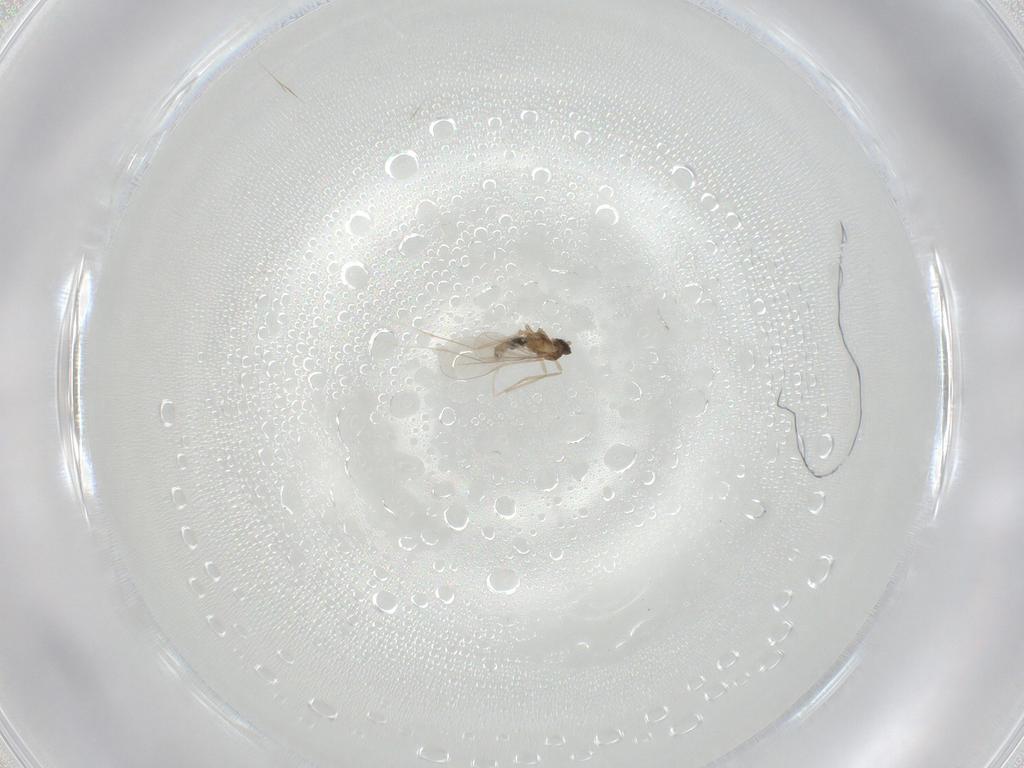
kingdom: Animalia
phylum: Arthropoda
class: Insecta
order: Diptera
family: Cecidomyiidae
